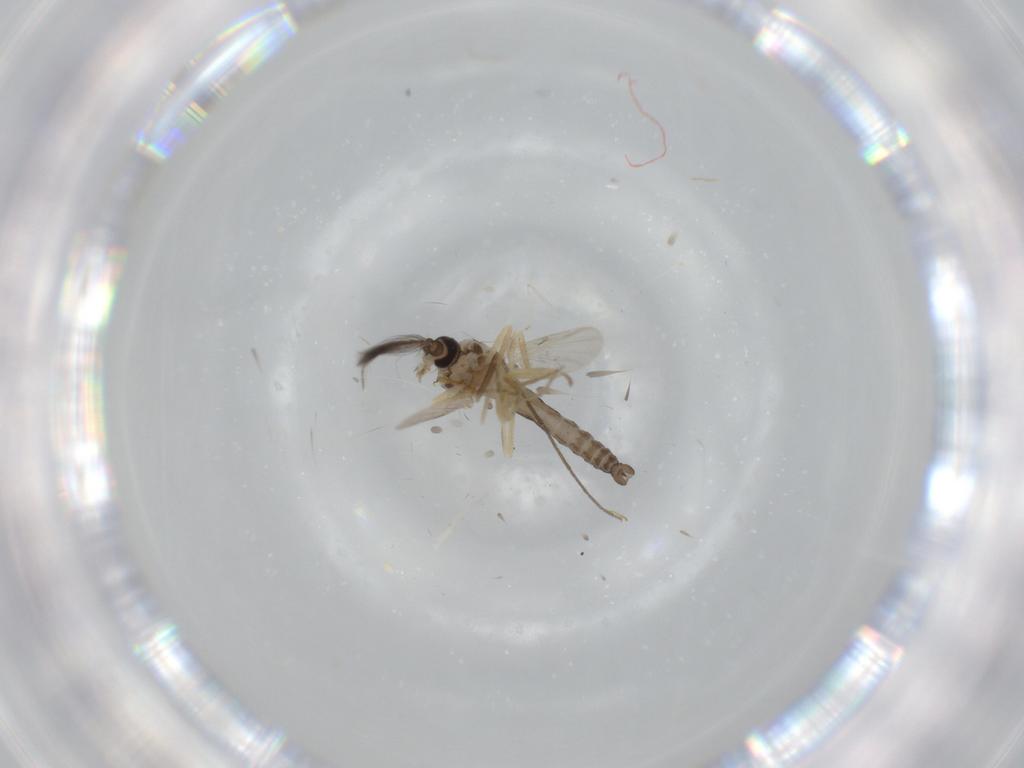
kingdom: Animalia
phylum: Arthropoda
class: Insecta
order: Diptera
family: Ceratopogonidae
